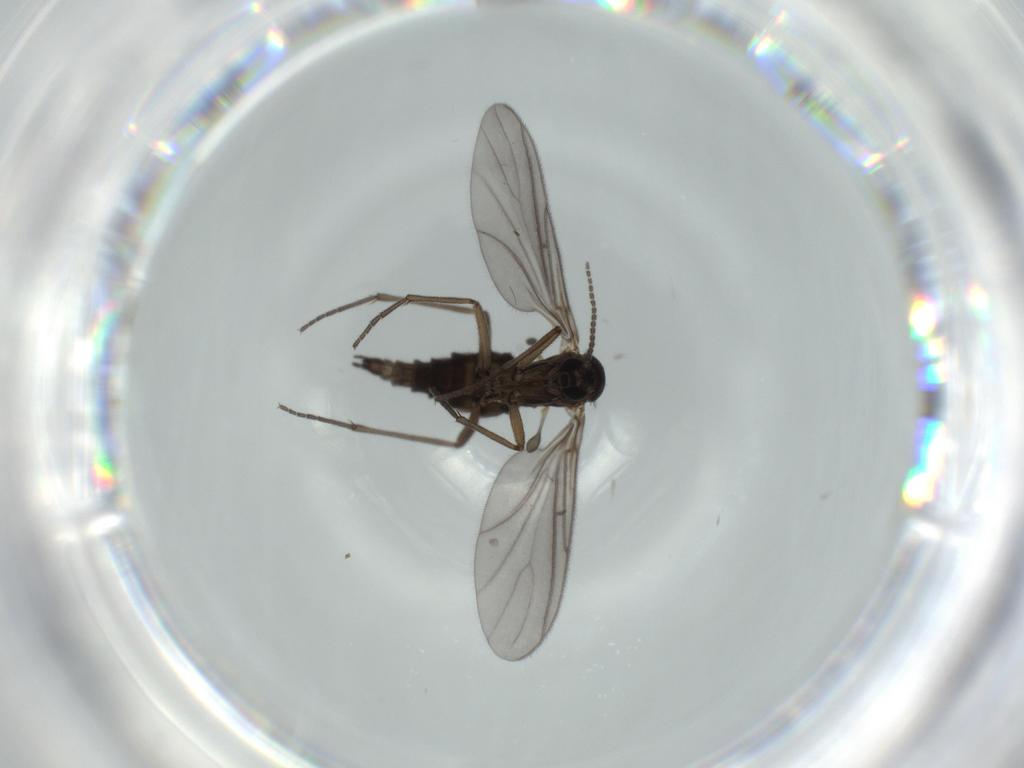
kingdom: Animalia
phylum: Arthropoda
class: Insecta
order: Diptera
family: Sciaridae
